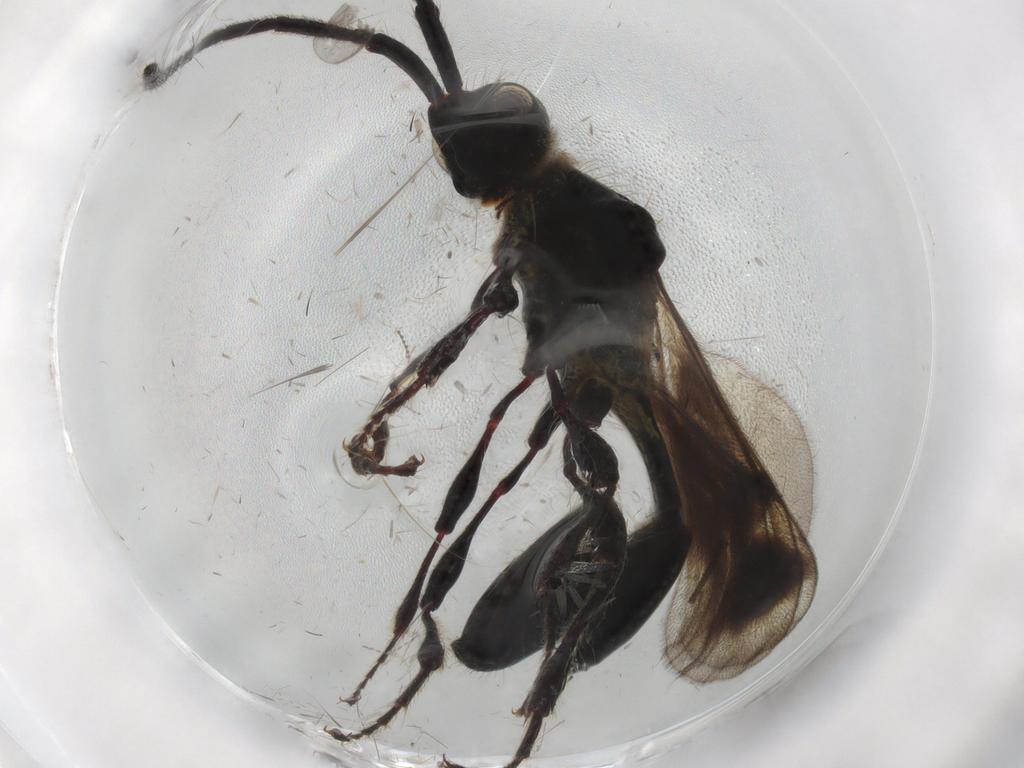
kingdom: Animalia
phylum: Arthropoda
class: Insecta
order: Hymenoptera
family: Diapriidae
